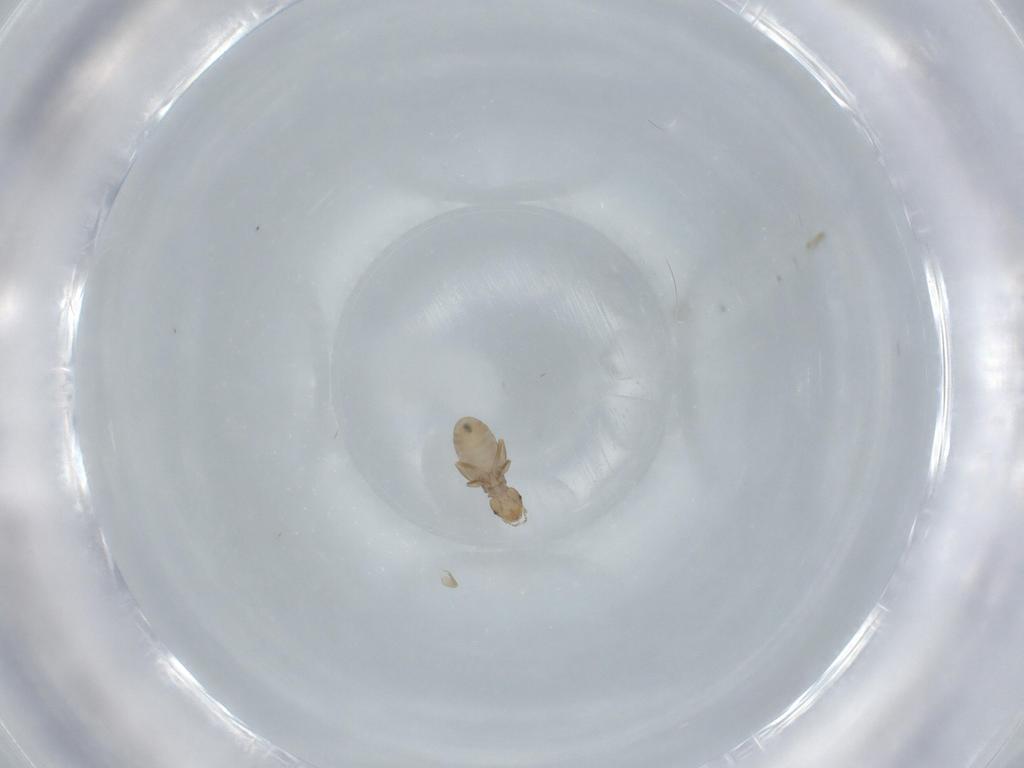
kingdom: Animalia
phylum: Arthropoda
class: Insecta
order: Psocodea
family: Liposcelididae
